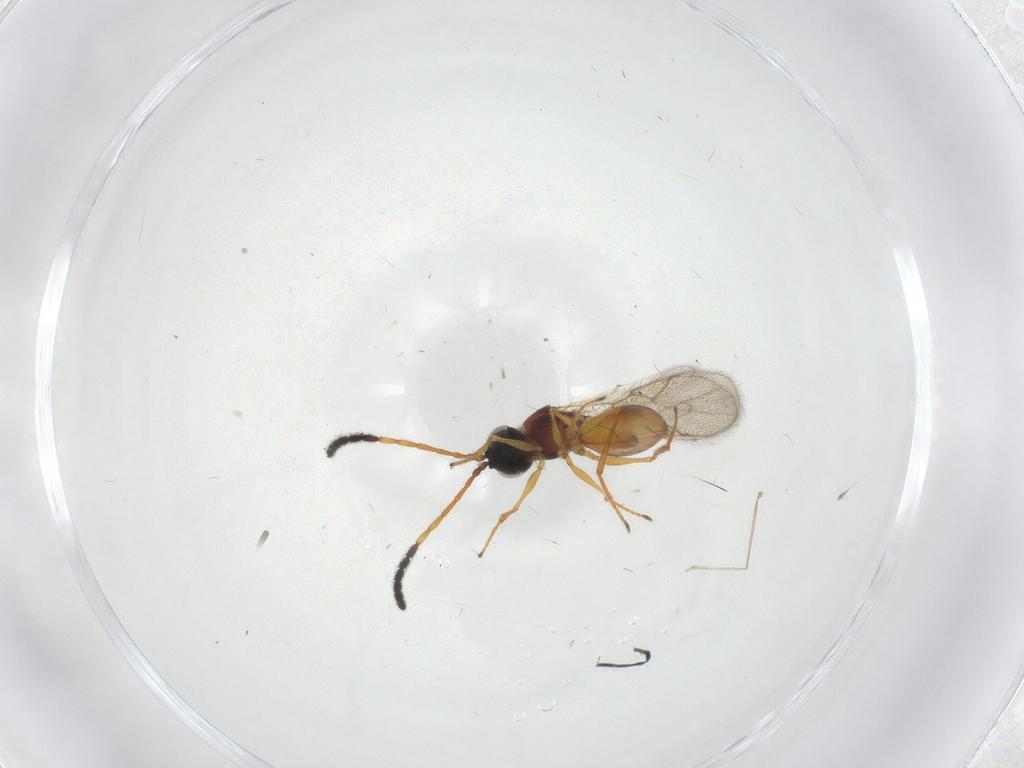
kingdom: Animalia
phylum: Arthropoda
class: Insecta
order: Hymenoptera
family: Figitidae
